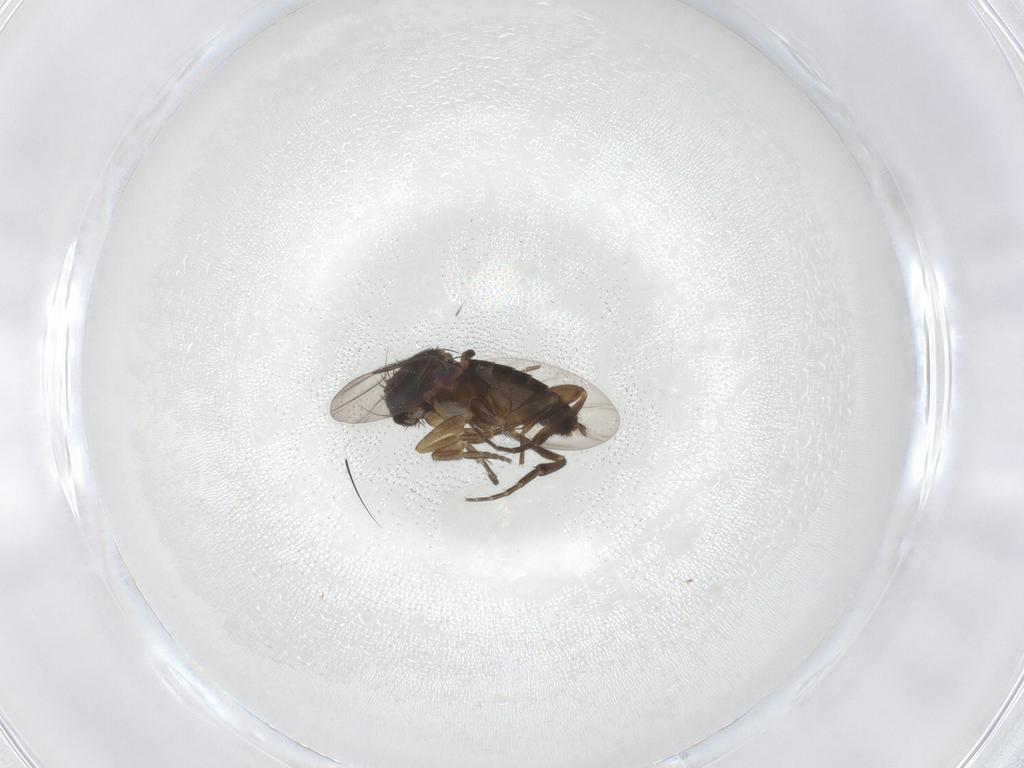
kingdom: Animalia
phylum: Arthropoda
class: Insecta
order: Diptera
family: Phoridae
